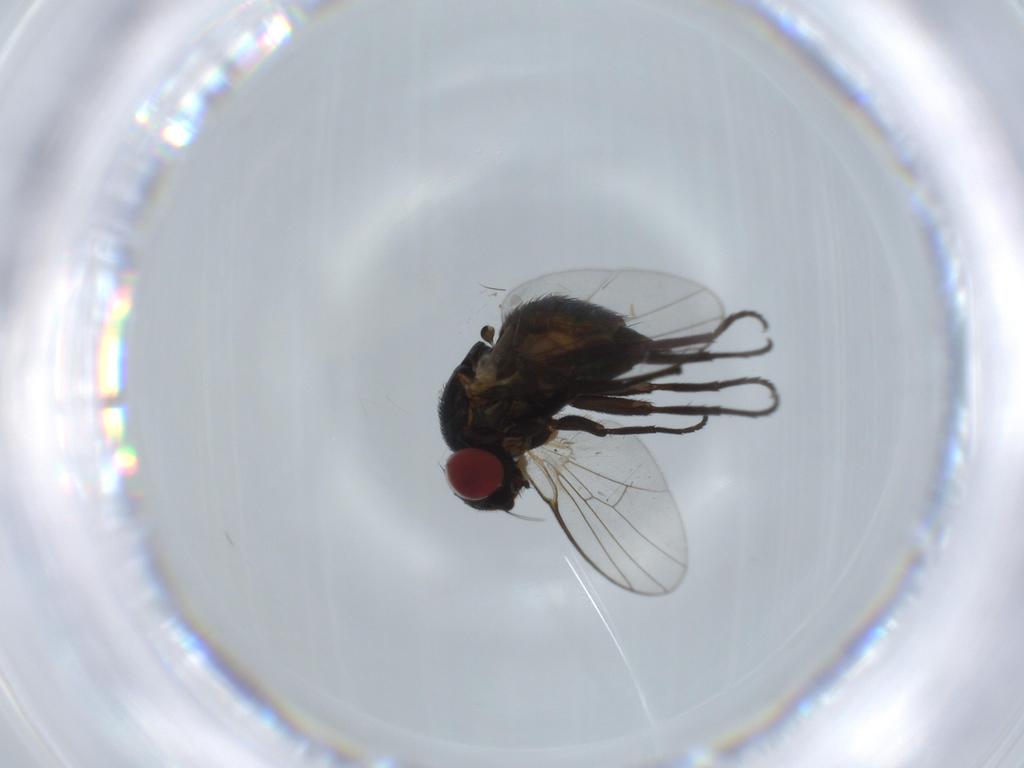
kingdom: Animalia
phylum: Arthropoda
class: Insecta
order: Diptera
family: Agromyzidae
